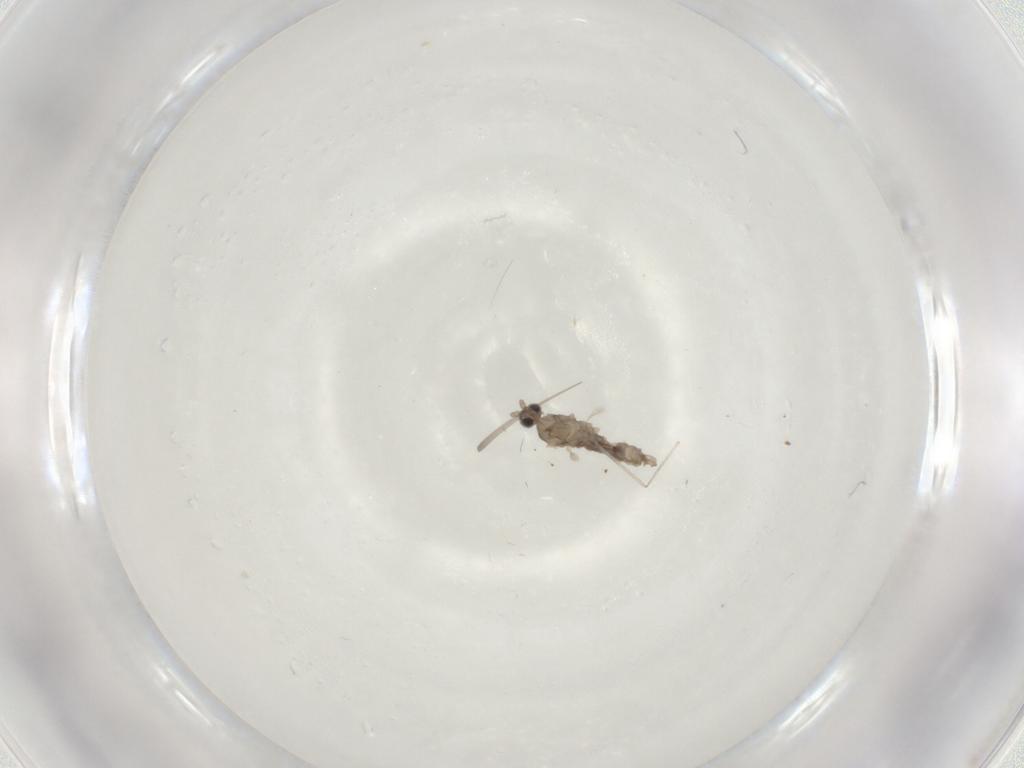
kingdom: Animalia
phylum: Arthropoda
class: Insecta
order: Diptera
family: Cecidomyiidae
